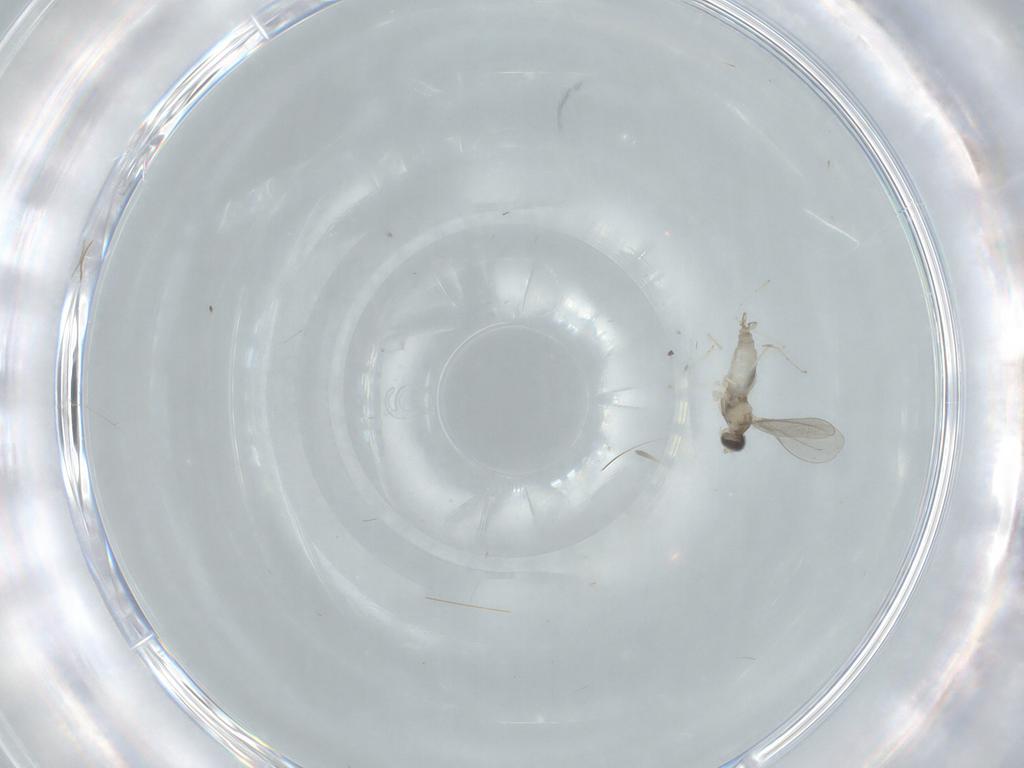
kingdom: Animalia
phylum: Arthropoda
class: Insecta
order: Diptera
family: Cecidomyiidae
